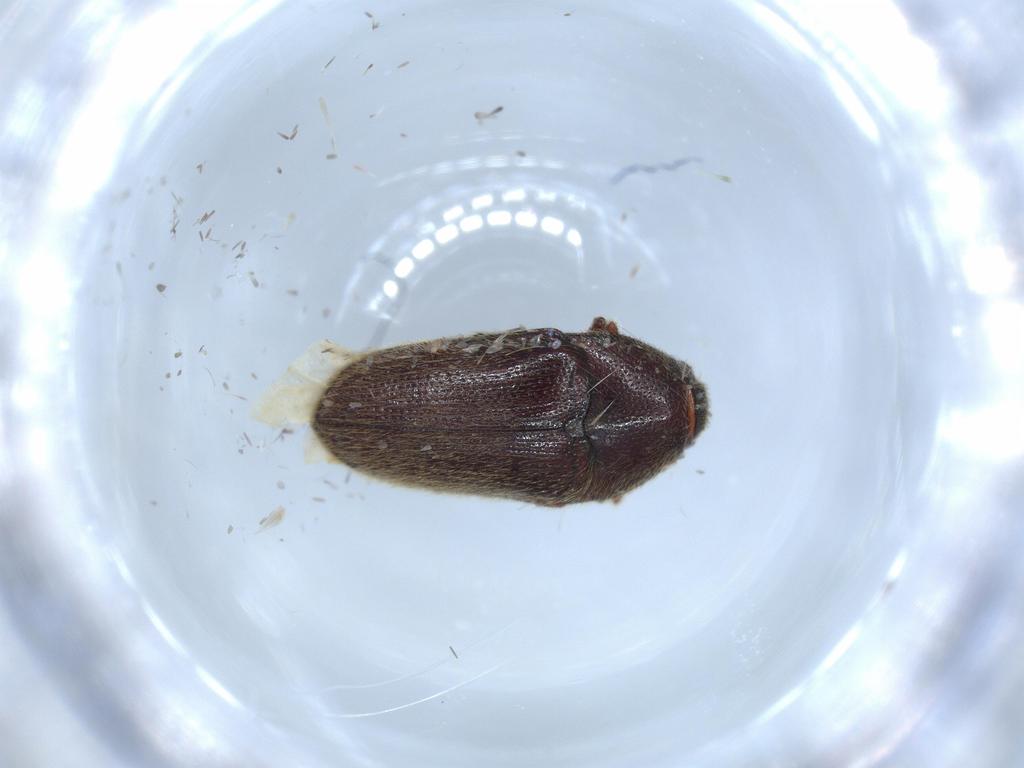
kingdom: Animalia
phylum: Arthropoda
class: Insecta
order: Coleoptera
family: Throscidae
